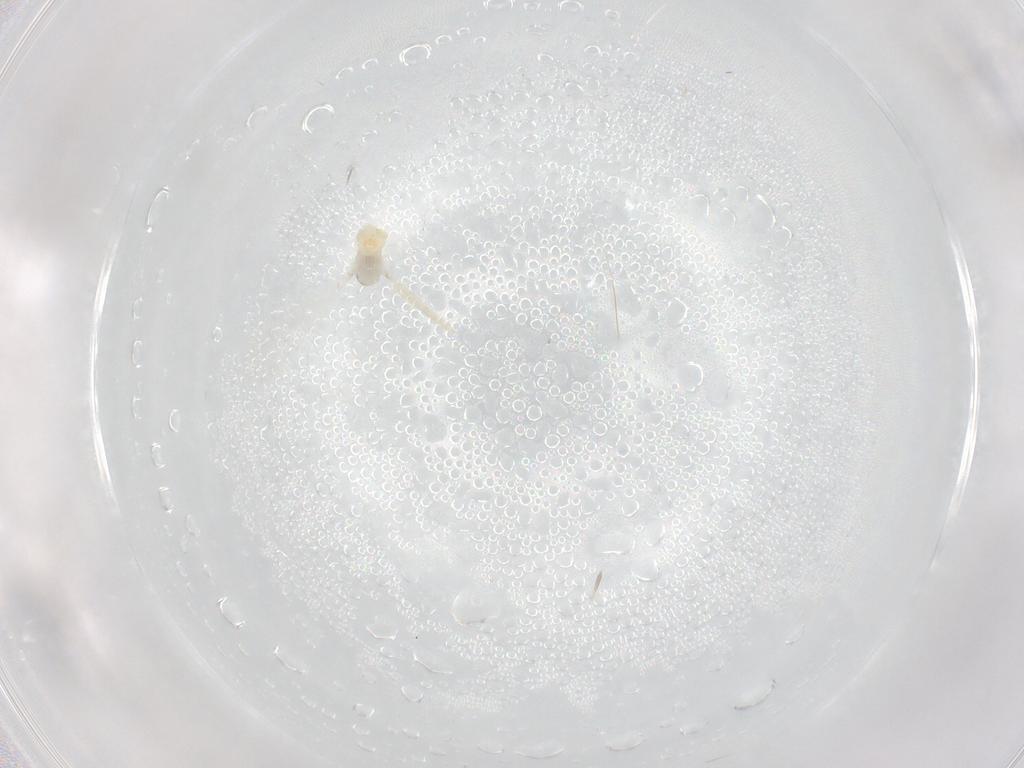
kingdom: Animalia
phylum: Arthropoda
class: Insecta
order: Diptera
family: Cecidomyiidae
